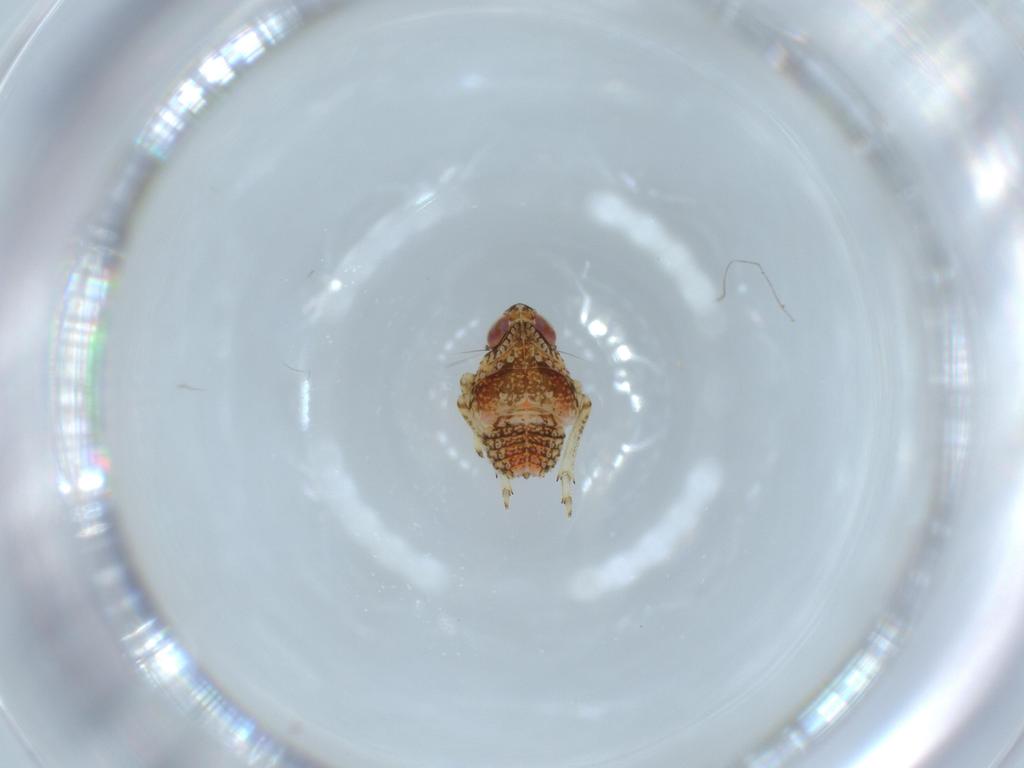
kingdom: Animalia
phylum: Arthropoda
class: Insecta
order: Hemiptera
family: Issidae
